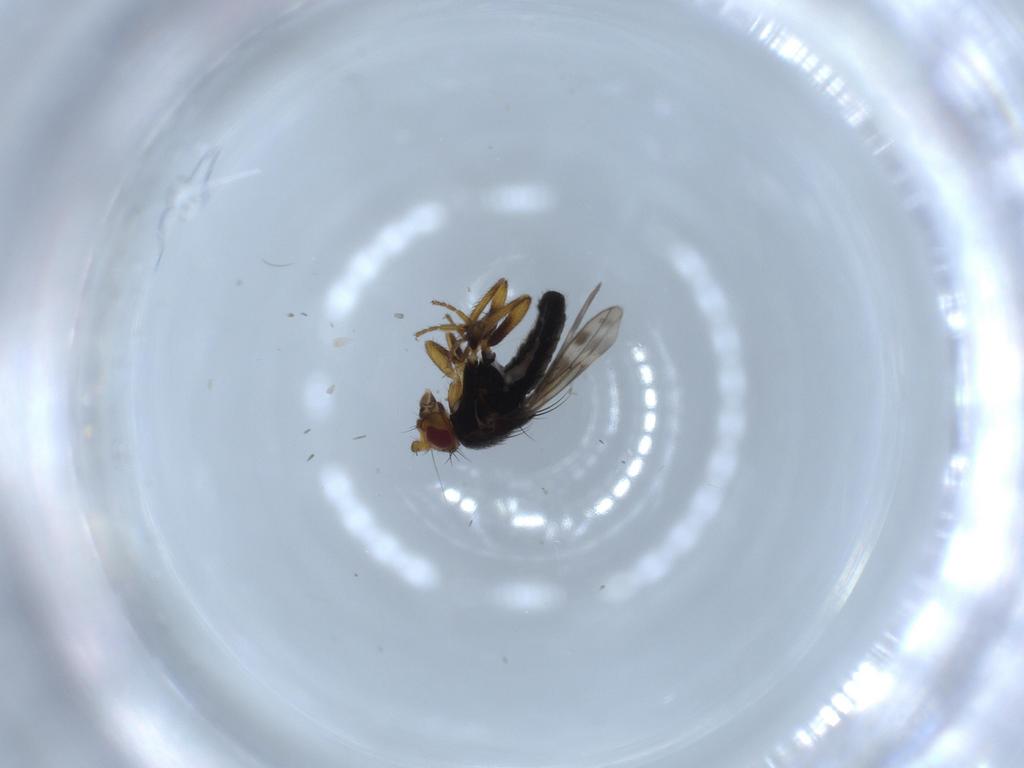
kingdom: Animalia
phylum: Arthropoda
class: Insecta
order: Diptera
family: Sphaeroceridae
